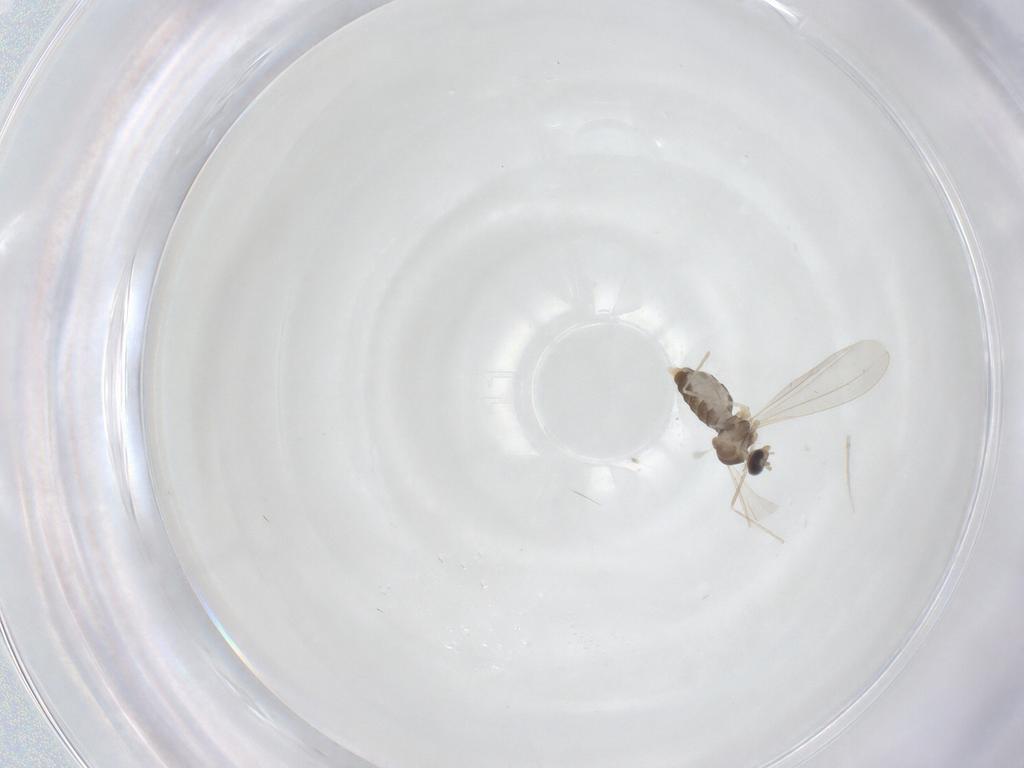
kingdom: Animalia
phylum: Arthropoda
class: Insecta
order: Diptera
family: Cecidomyiidae
